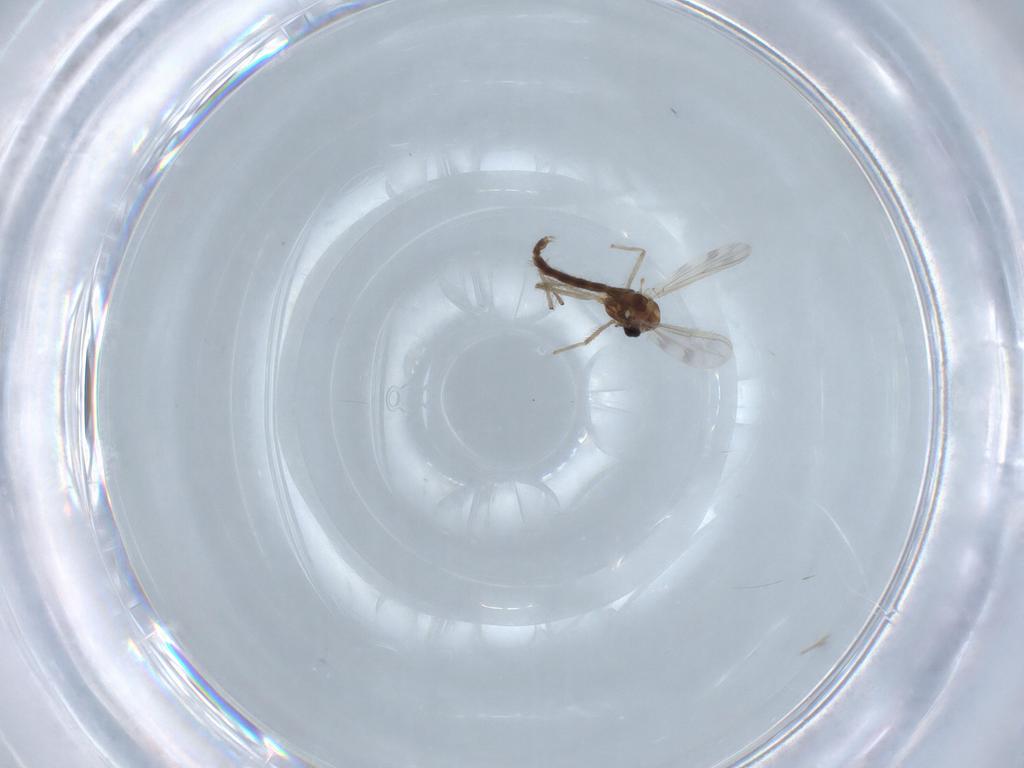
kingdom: Animalia
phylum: Arthropoda
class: Insecta
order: Diptera
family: Chironomidae
